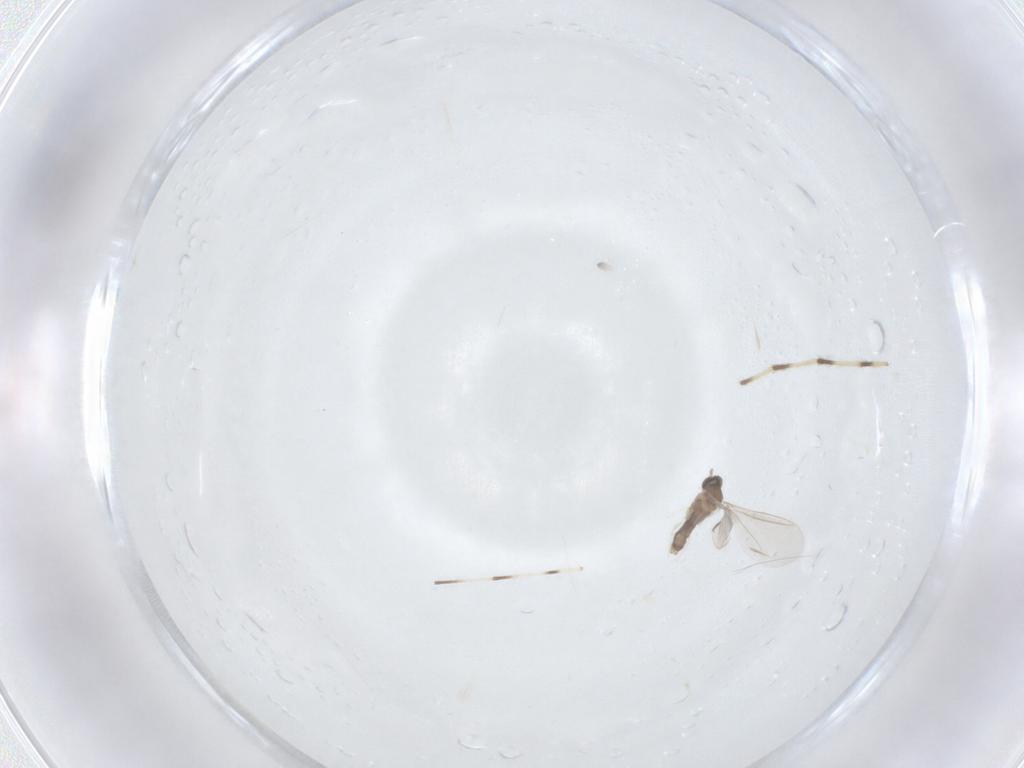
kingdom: Animalia
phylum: Arthropoda
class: Insecta
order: Diptera
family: Cecidomyiidae
